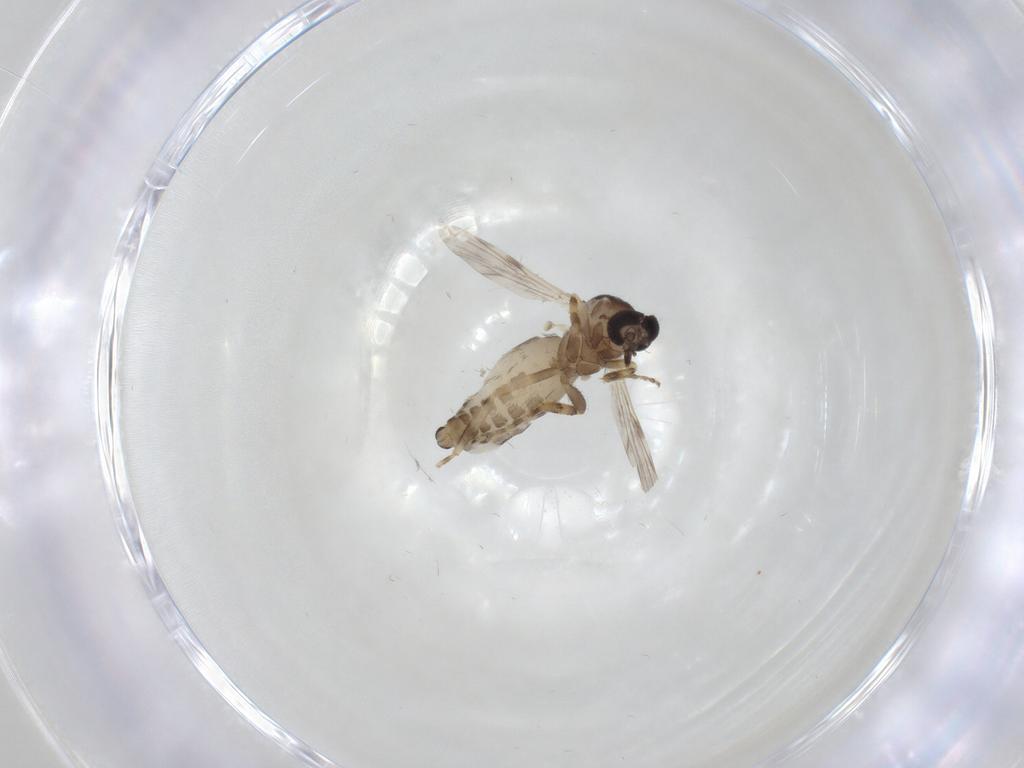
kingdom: Animalia
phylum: Arthropoda
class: Insecta
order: Diptera
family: Ceratopogonidae
